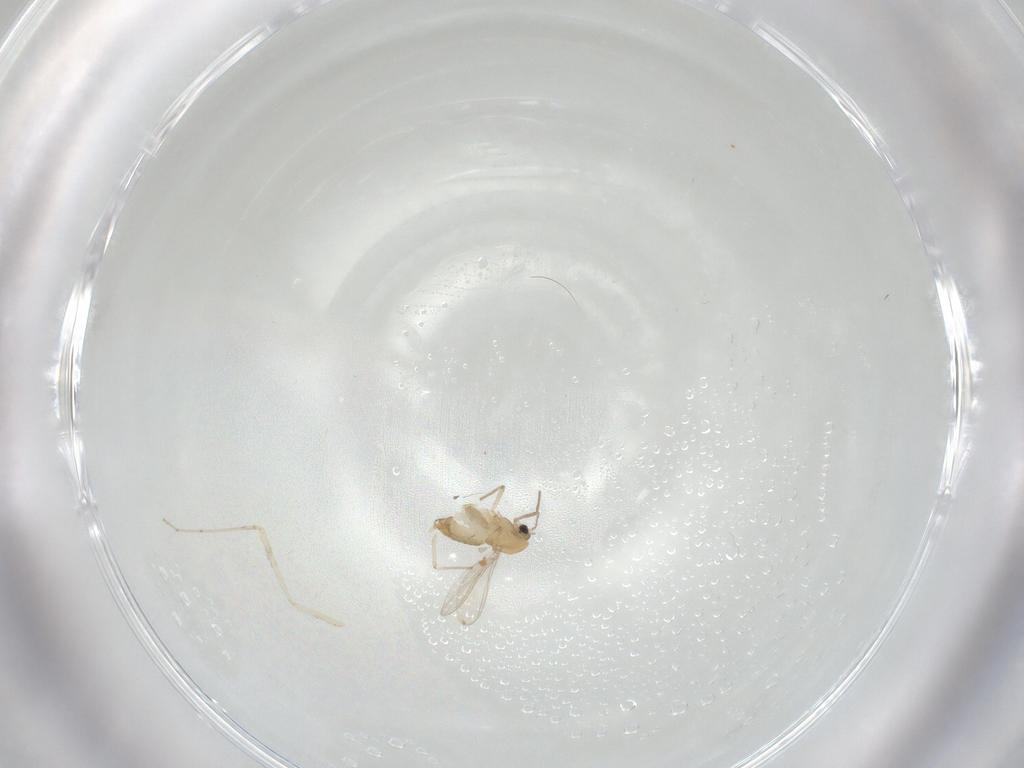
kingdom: Animalia
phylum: Arthropoda
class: Insecta
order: Diptera
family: Chironomidae
